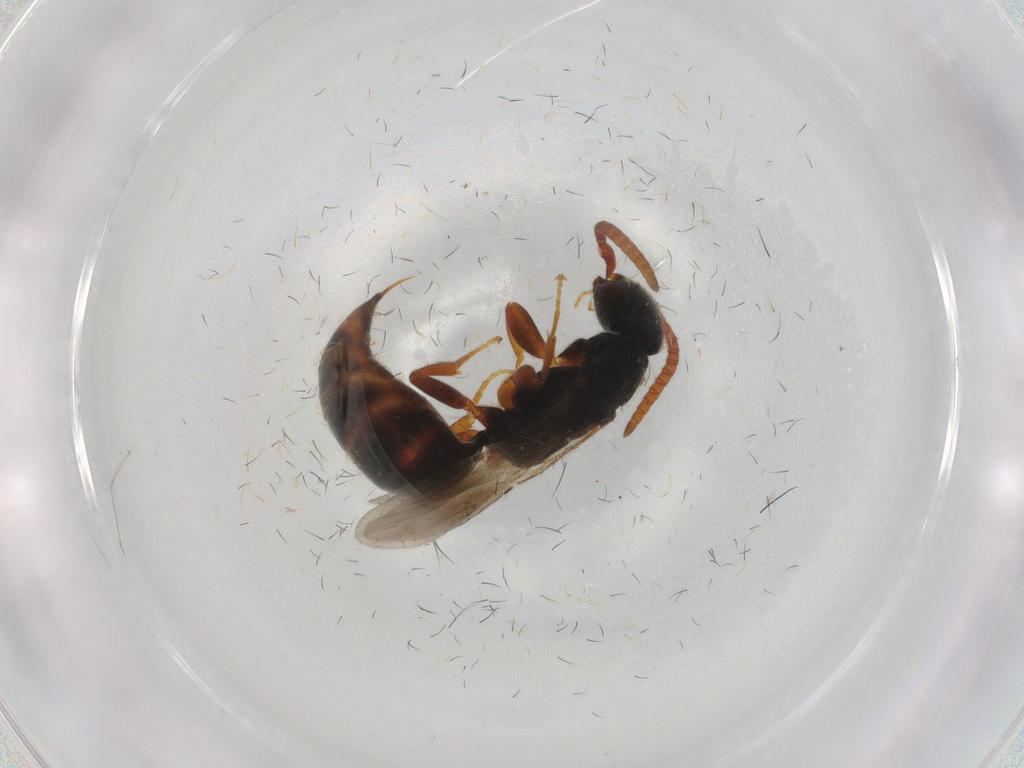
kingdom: Animalia
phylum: Arthropoda
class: Insecta
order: Hymenoptera
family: Bethylidae
